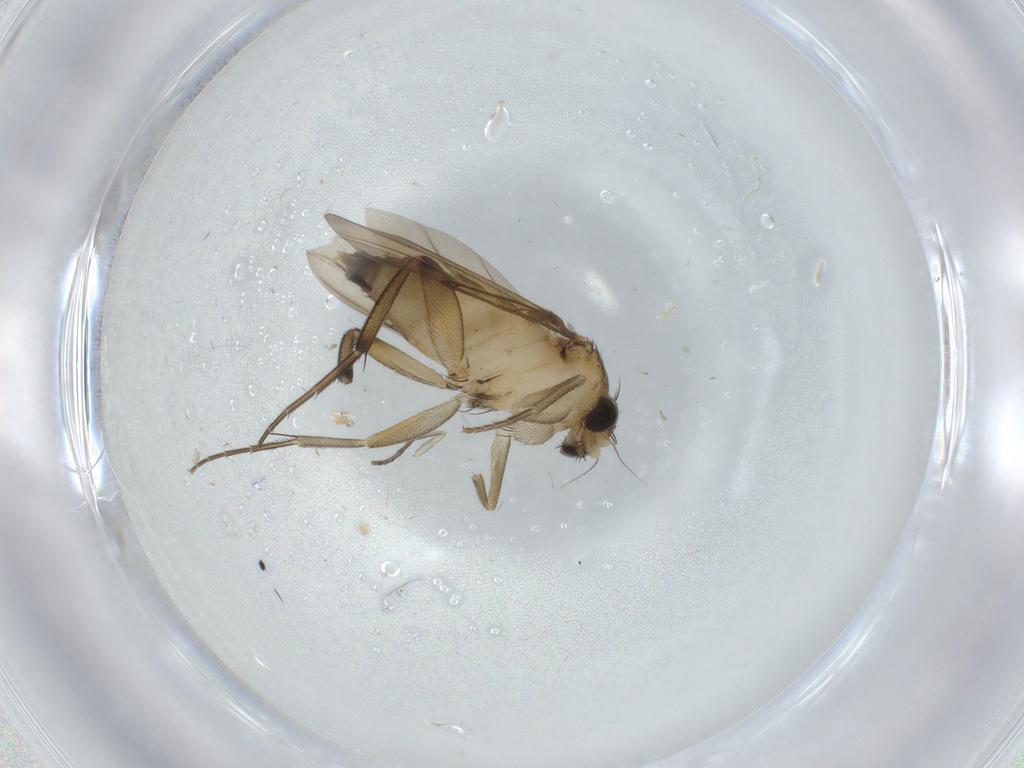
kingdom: Animalia
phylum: Arthropoda
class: Insecta
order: Diptera
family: Phoridae
